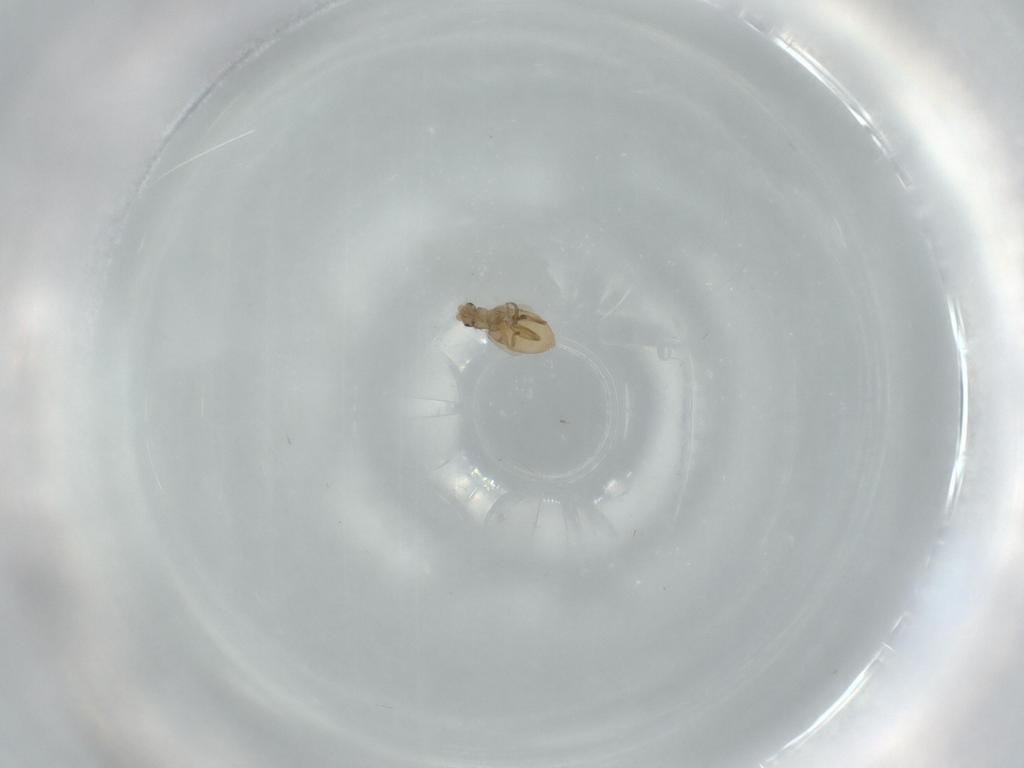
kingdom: Animalia
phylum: Arthropoda
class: Insecta
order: Diptera
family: Phoridae
